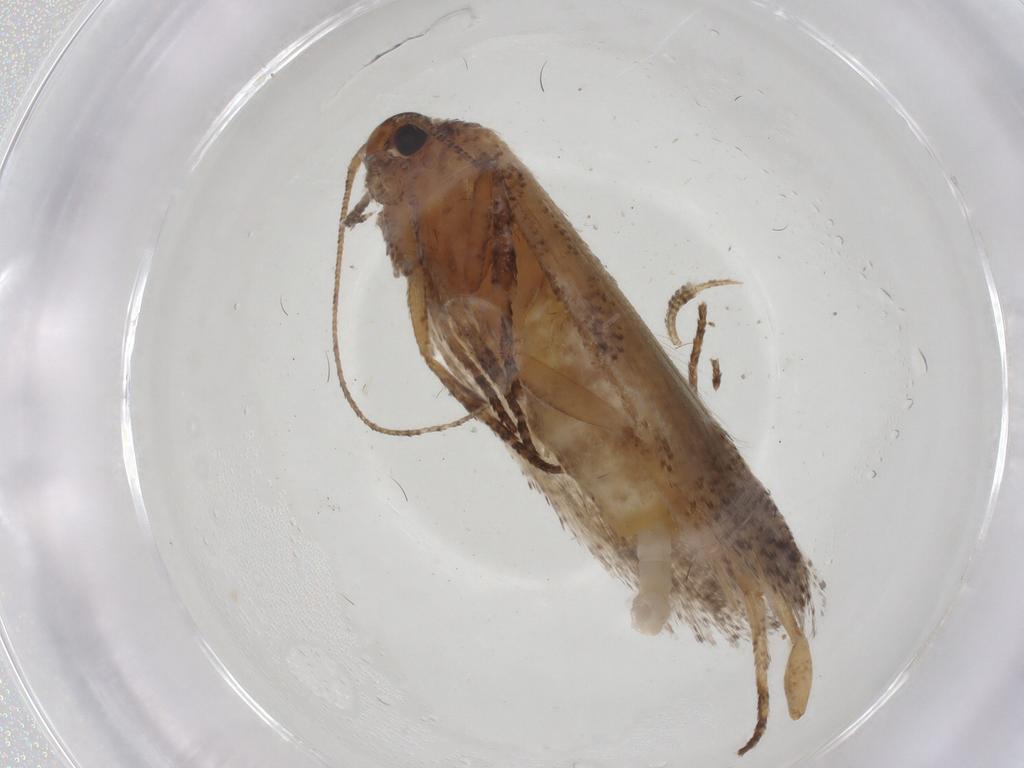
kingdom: Animalia
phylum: Arthropoda
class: Insecta
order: Lepidoptera
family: Cosmopterigidae
